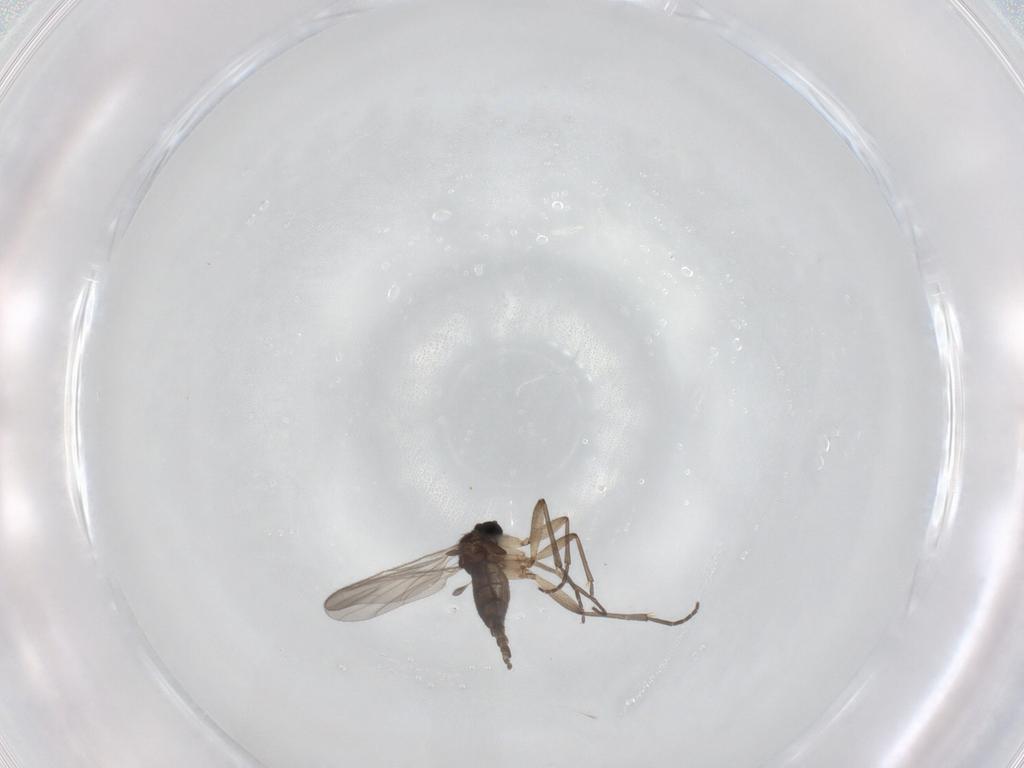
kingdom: Animalia
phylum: Arthropoda
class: Insecta
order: Diptera
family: Sciaridae
